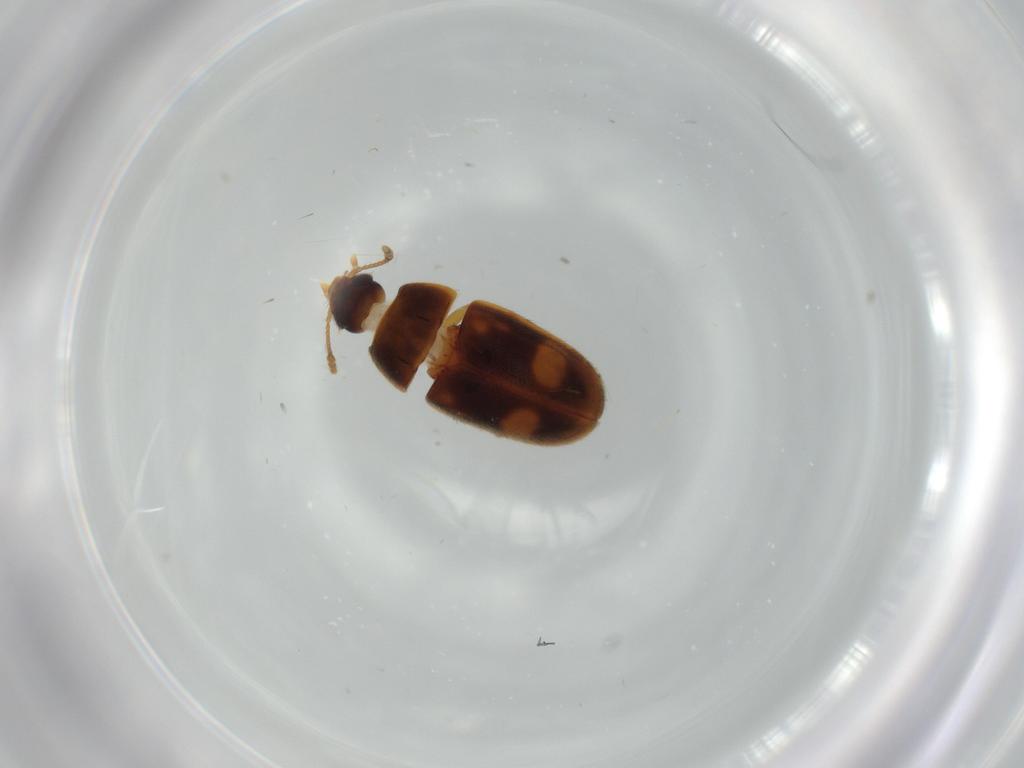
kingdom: Animalia
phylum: Arthropoda
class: Insecta
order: Coleoptera
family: Mycetophagidae
